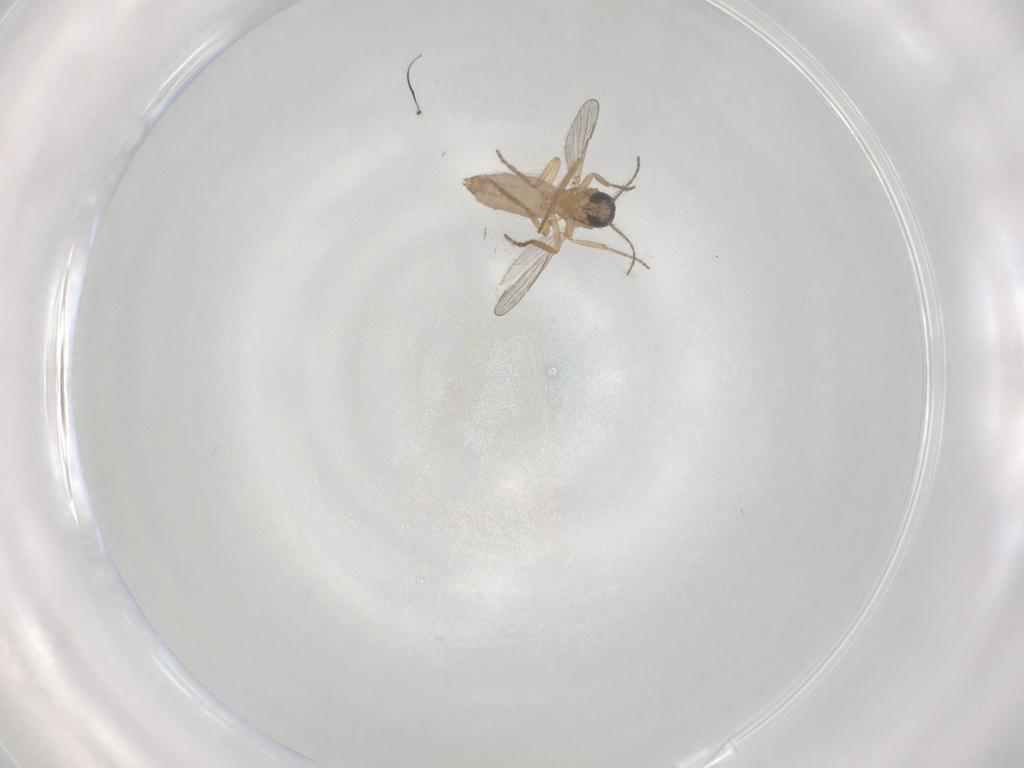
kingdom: Animalia
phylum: Arthropoda
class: Insecta
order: Diptera
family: Ceratopogonidae
